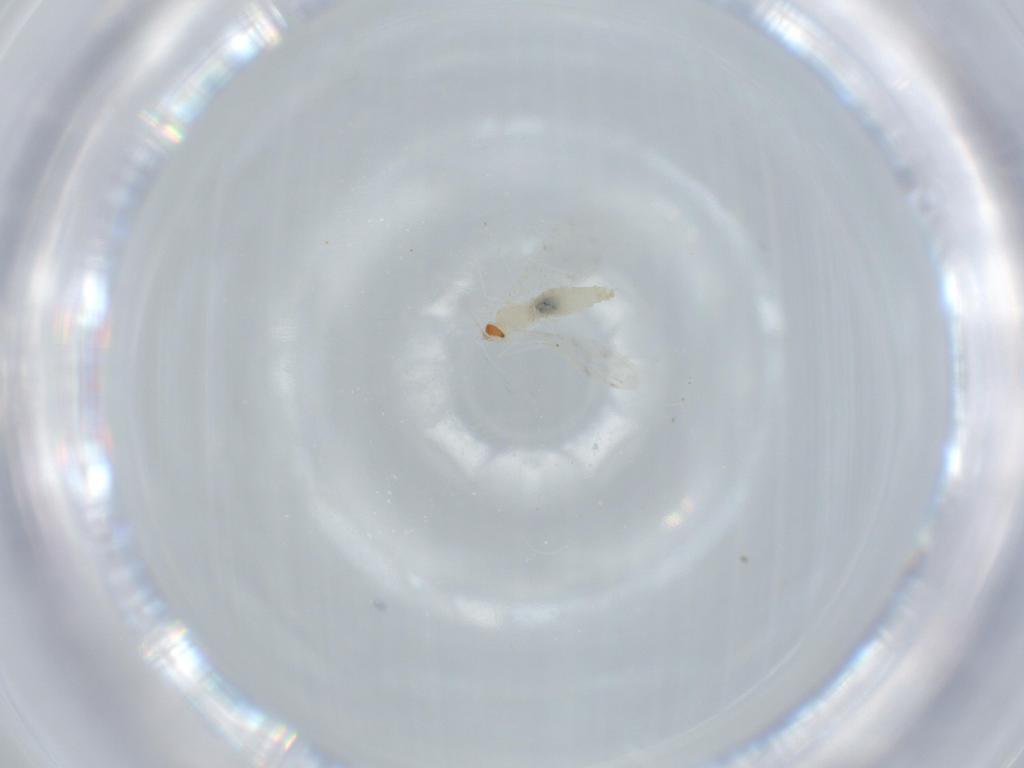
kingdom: Animalia
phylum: Arthropoda
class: Insecta
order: Diptera
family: Cecidomyiidae
